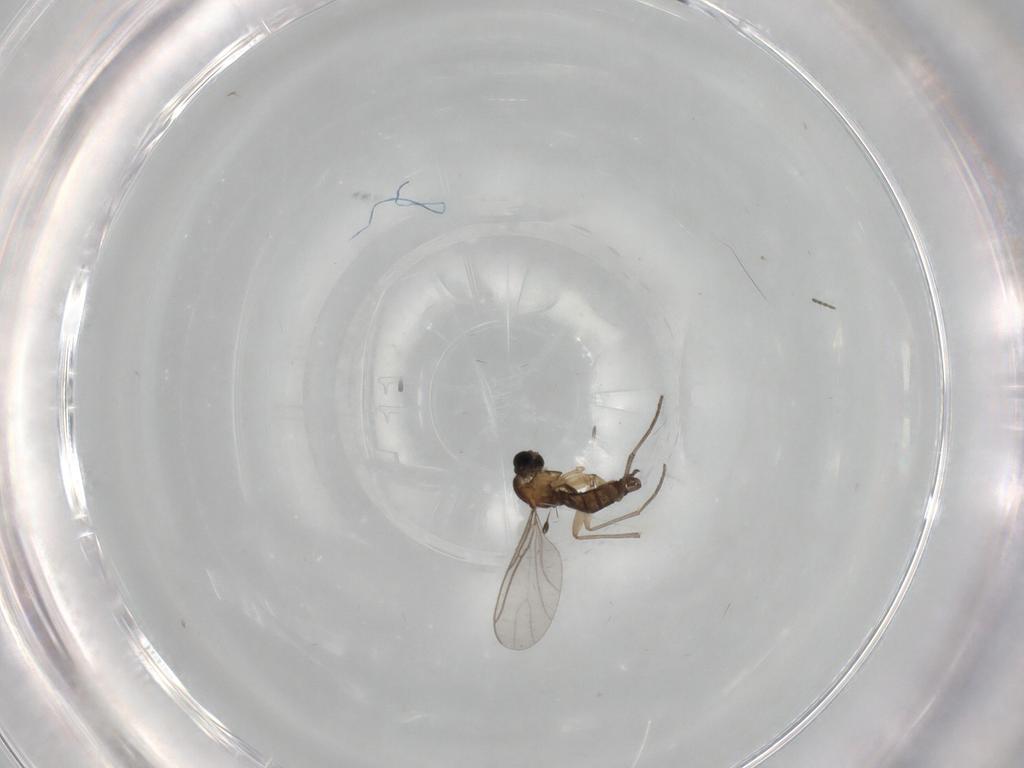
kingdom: Animalia
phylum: Arthropoda
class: Insecta
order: Diptera
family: Sciaridae
